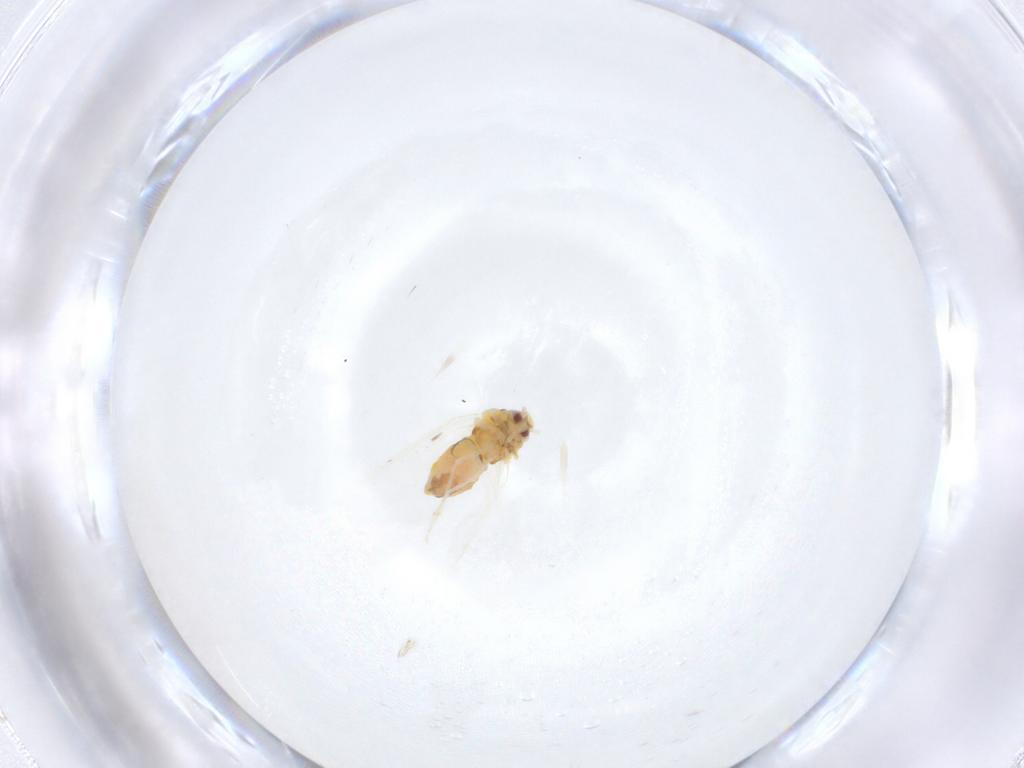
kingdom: Animalia
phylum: Arthropoda
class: Insecta
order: Hemiptera
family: Aleyrodidae
